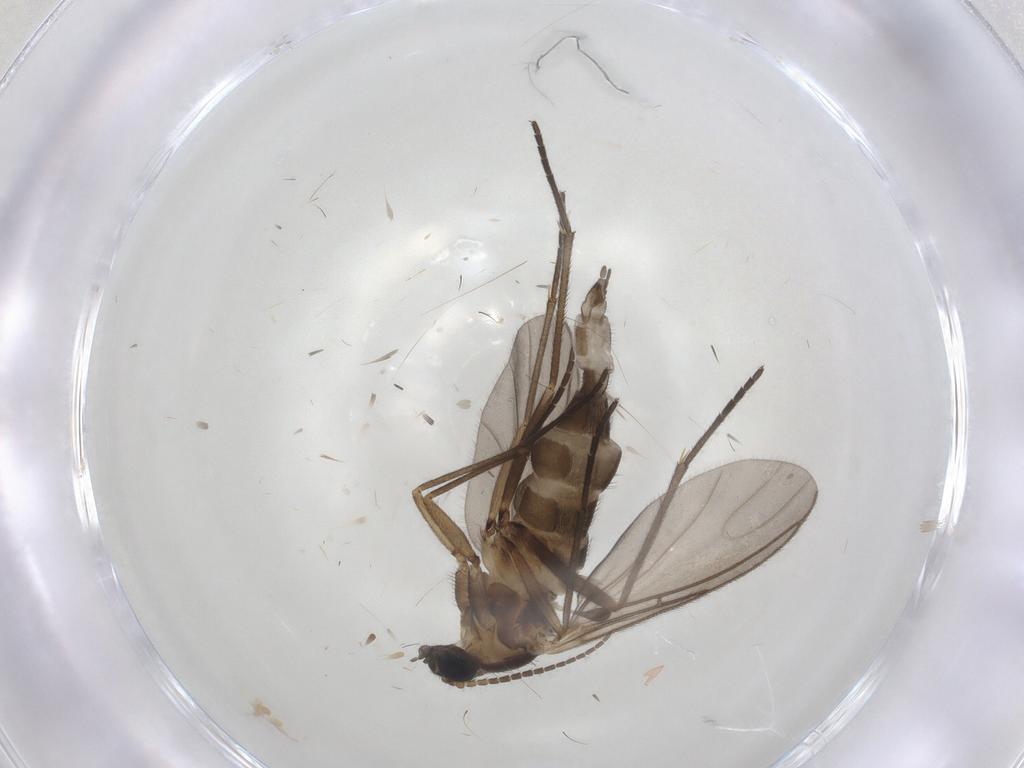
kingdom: Animalia
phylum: Arthropoda
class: Insecta
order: Diptera
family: Sciaridae
